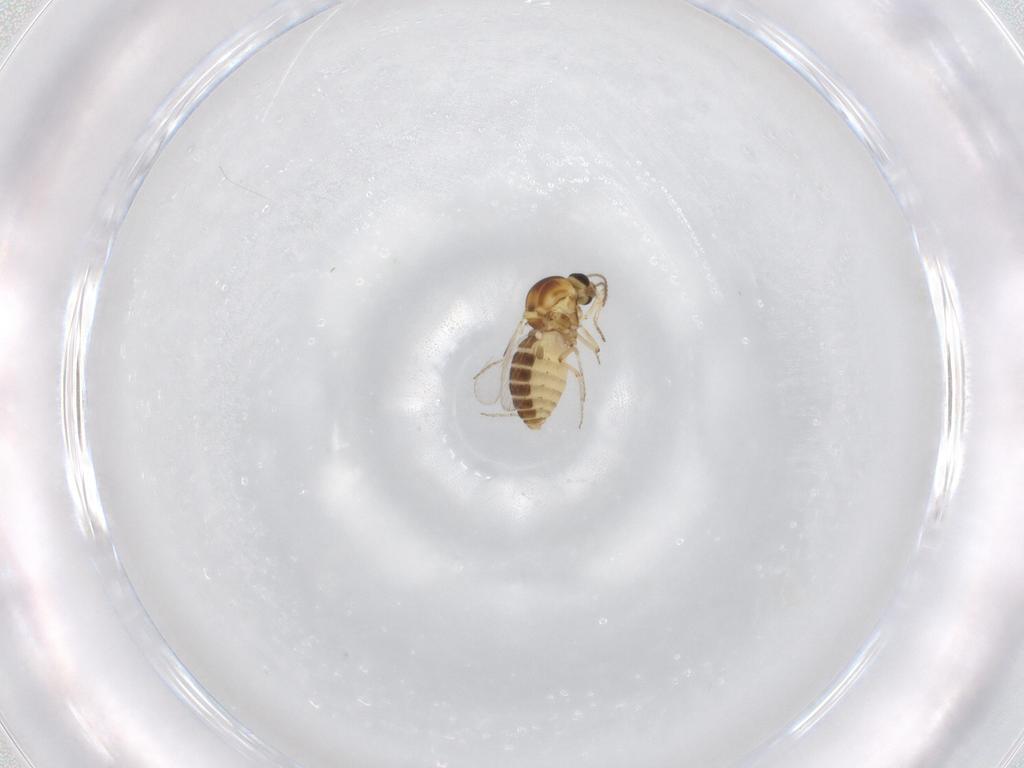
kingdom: Animalia
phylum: Arthropoda
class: Insecta
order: Diptera
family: Ceratopogonidae
